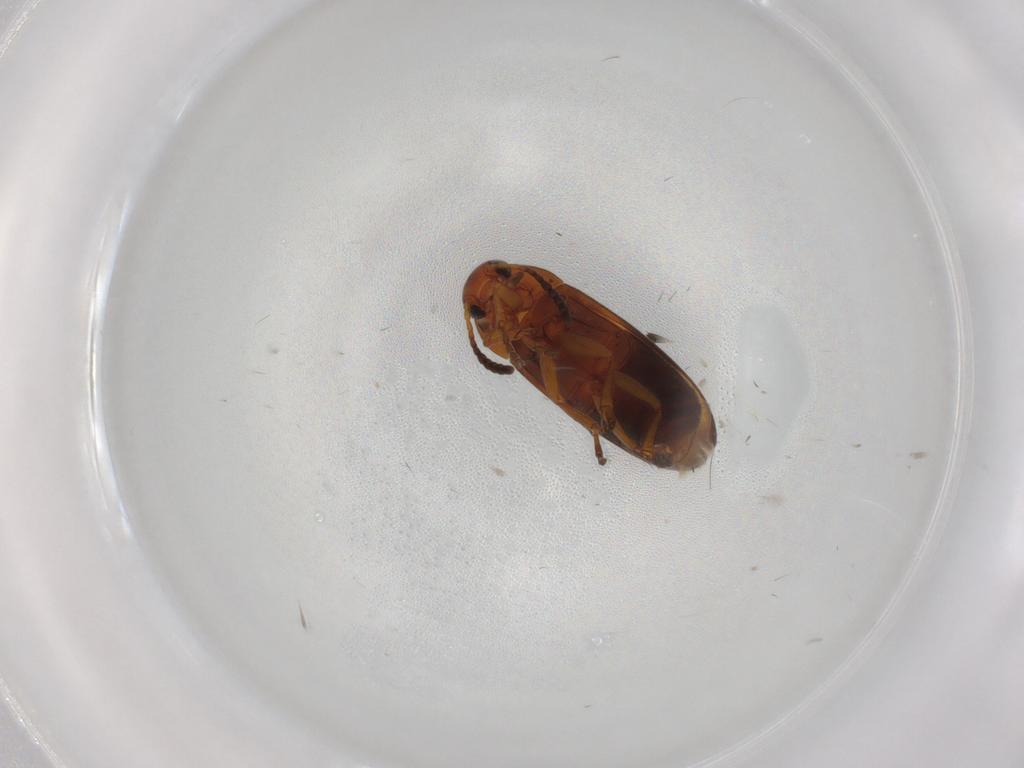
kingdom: Animalia
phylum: Arthropoda
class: Insecta
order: Coleoptera
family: Scraptiidae
